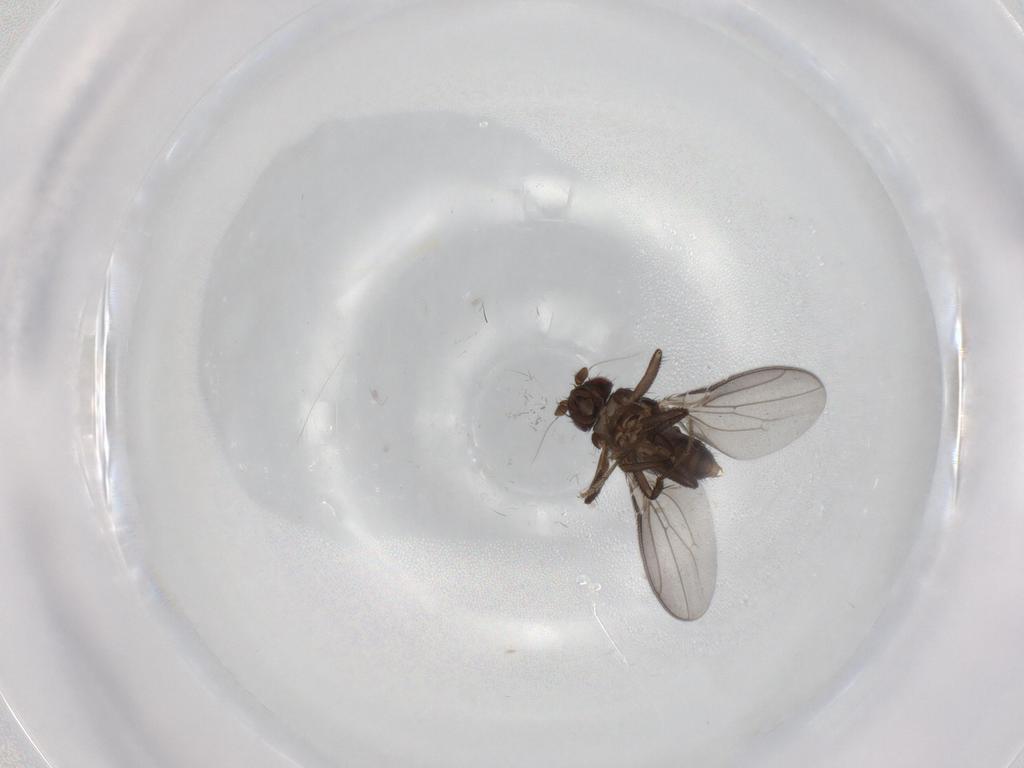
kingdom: Animalia
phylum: Arthropoda
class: Insecta
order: Diptera
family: Sphaeroceridae
